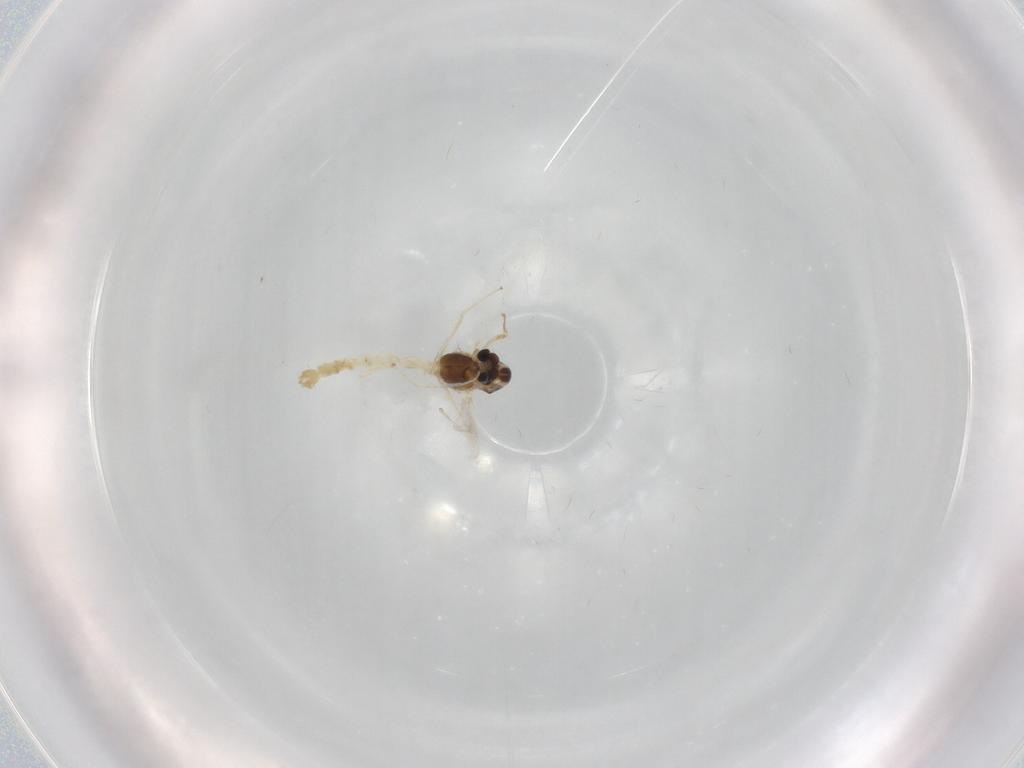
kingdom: Animalia
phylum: Arthropoda
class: Insecta
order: Diptera
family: Chironomidae
